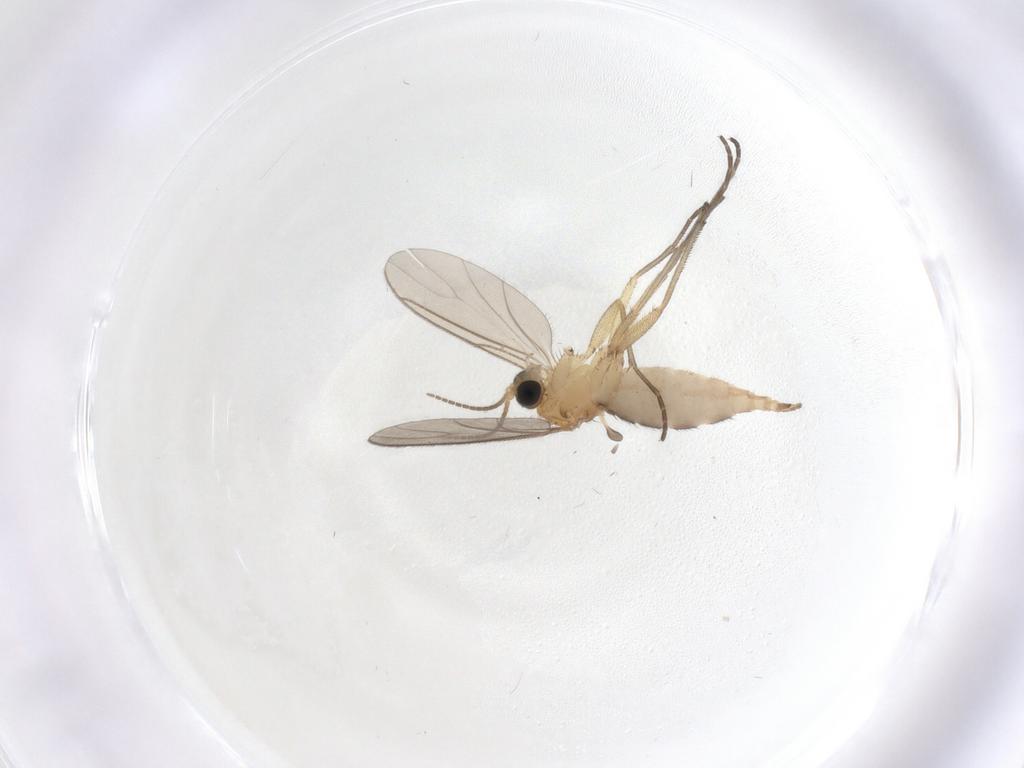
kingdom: Animalia
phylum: Arthropoda
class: Insecta
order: Diptera
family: Sciaridae
